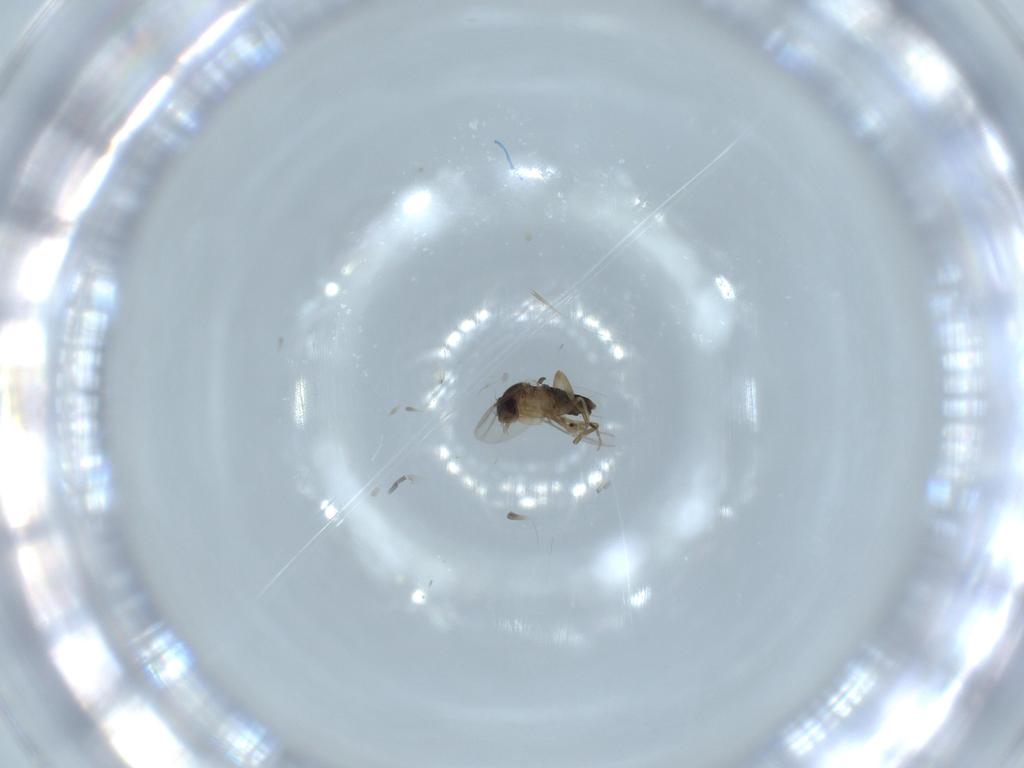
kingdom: Animalia
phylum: Arthropoda
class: Insecta
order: Diptera
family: Phoridae
